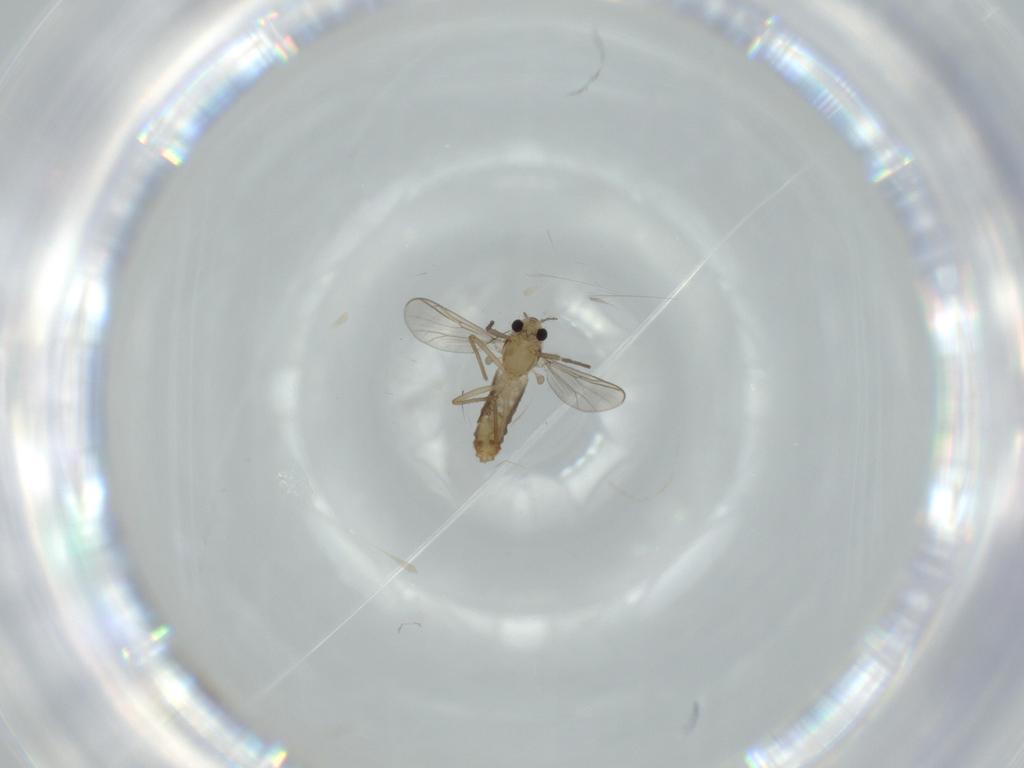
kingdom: Animalia
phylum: Arthropoda
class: Insecta
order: Diptera
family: Chironomidae
